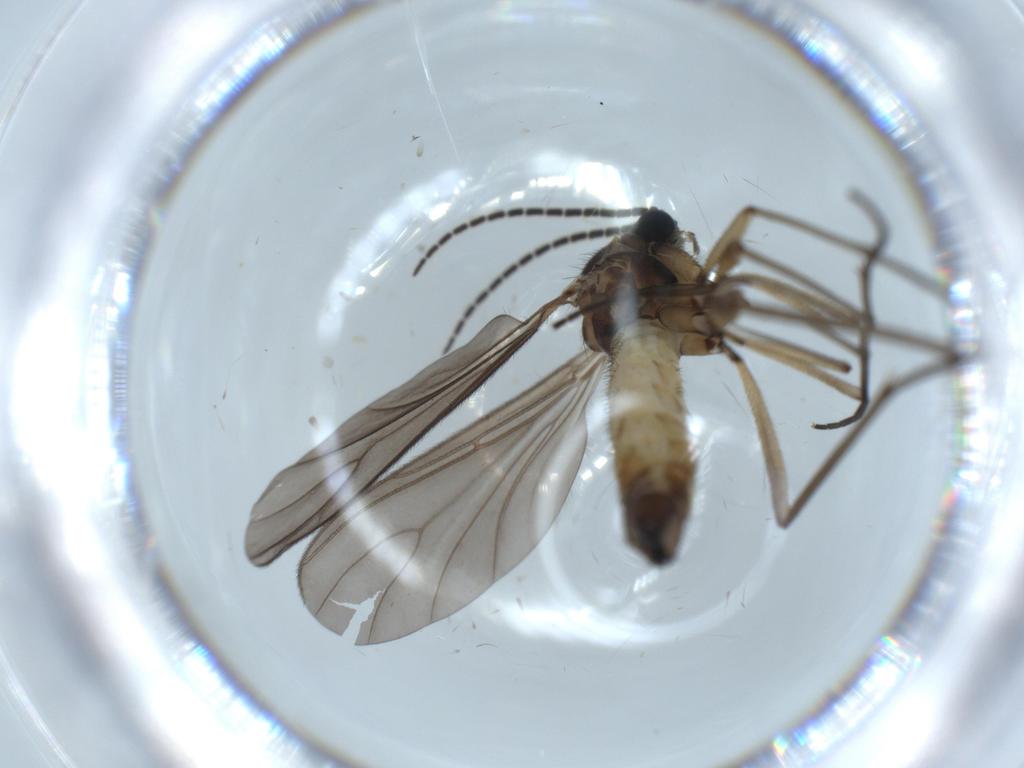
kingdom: Animalia
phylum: Arthropoda
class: Insecta
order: Diptera
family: Sciaridae
